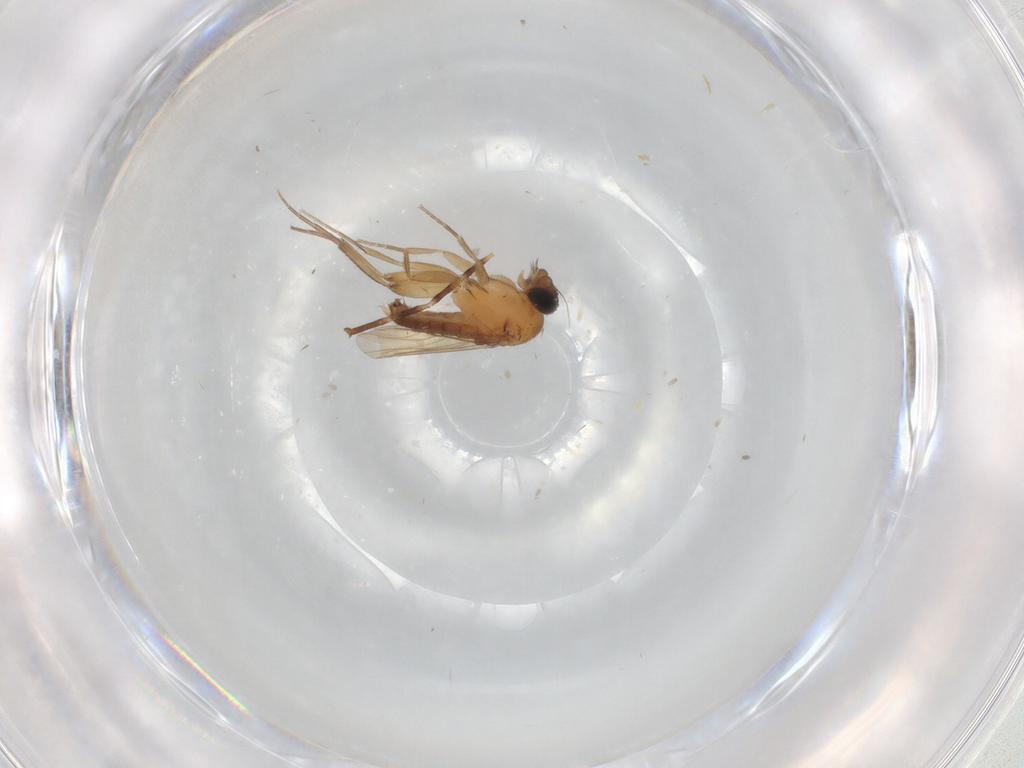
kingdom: Animalia
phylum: Arthropoda
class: Insecta
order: Diptera
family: Phoridae
